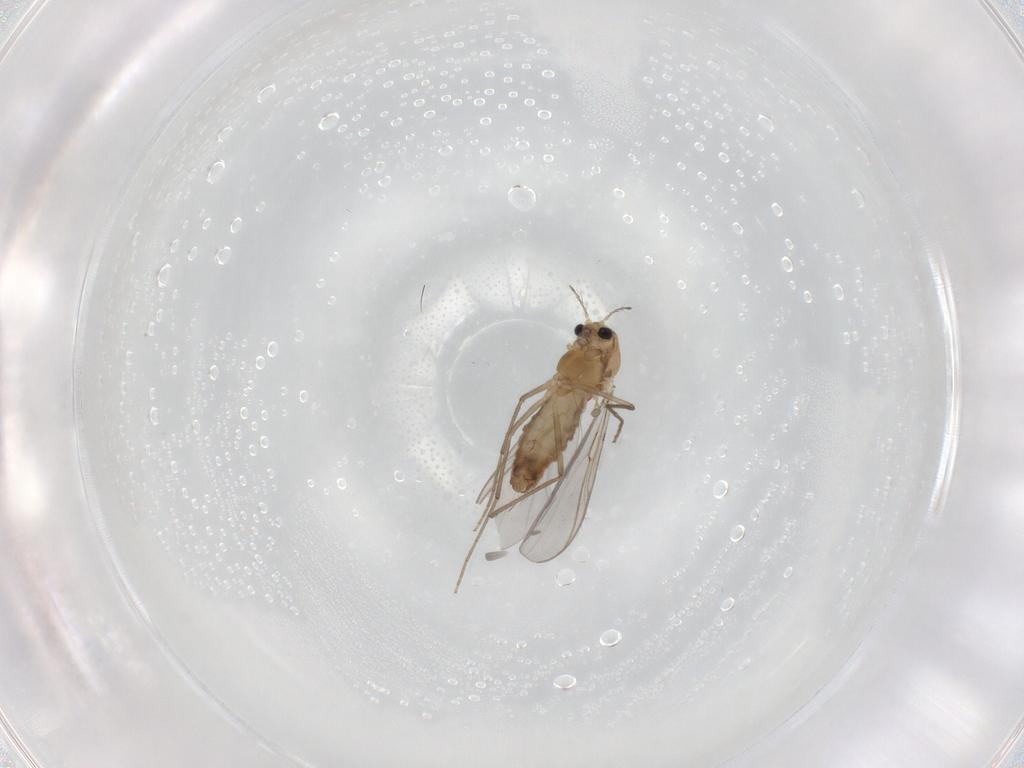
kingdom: Animalia
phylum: Arthropoda
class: Insecta
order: Diptera
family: Chironomidae
